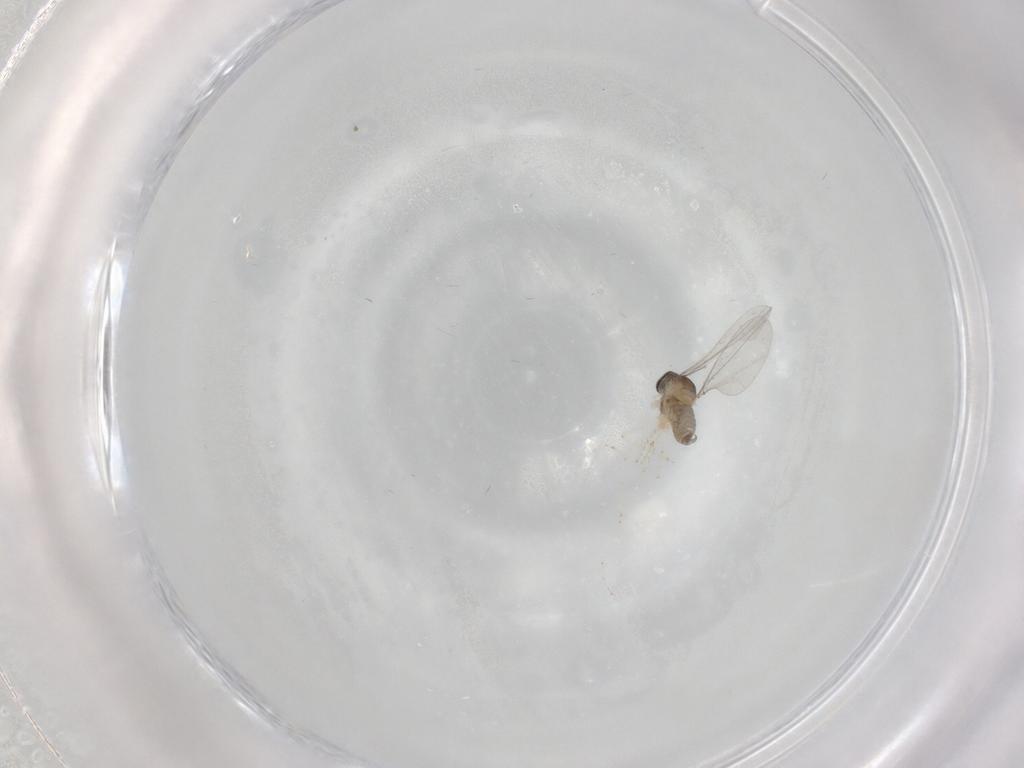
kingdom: Animalia
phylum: Arthropoda
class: Insecta
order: Diptera
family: Cecidomyiidae
